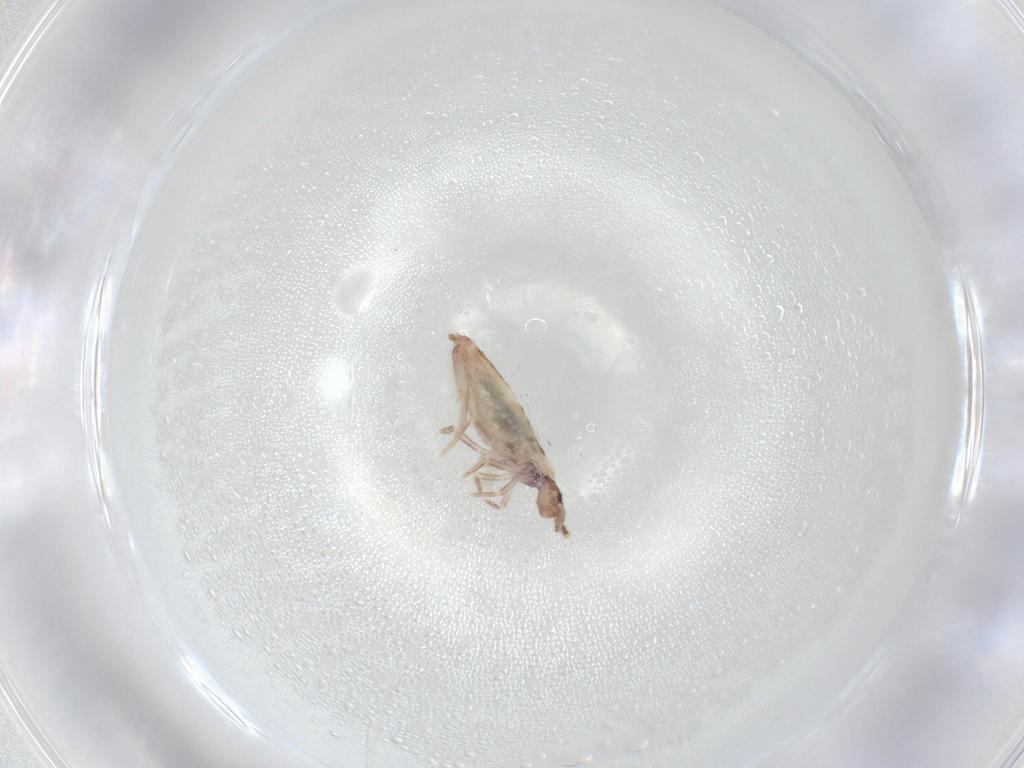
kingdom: Animalia
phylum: Arthropoda
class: Collembola
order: Entomobryomorpha
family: Entomobryidae
